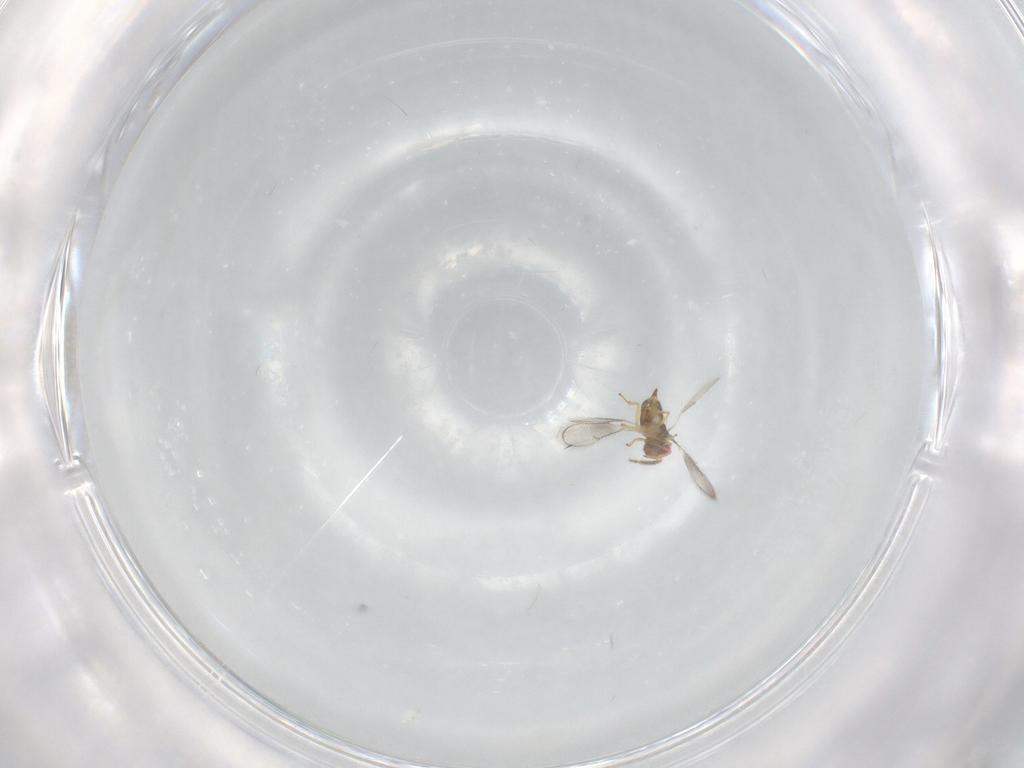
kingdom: Animalia
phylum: Arthropoda
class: Insecta
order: Hymenoptera
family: Eulophidae
